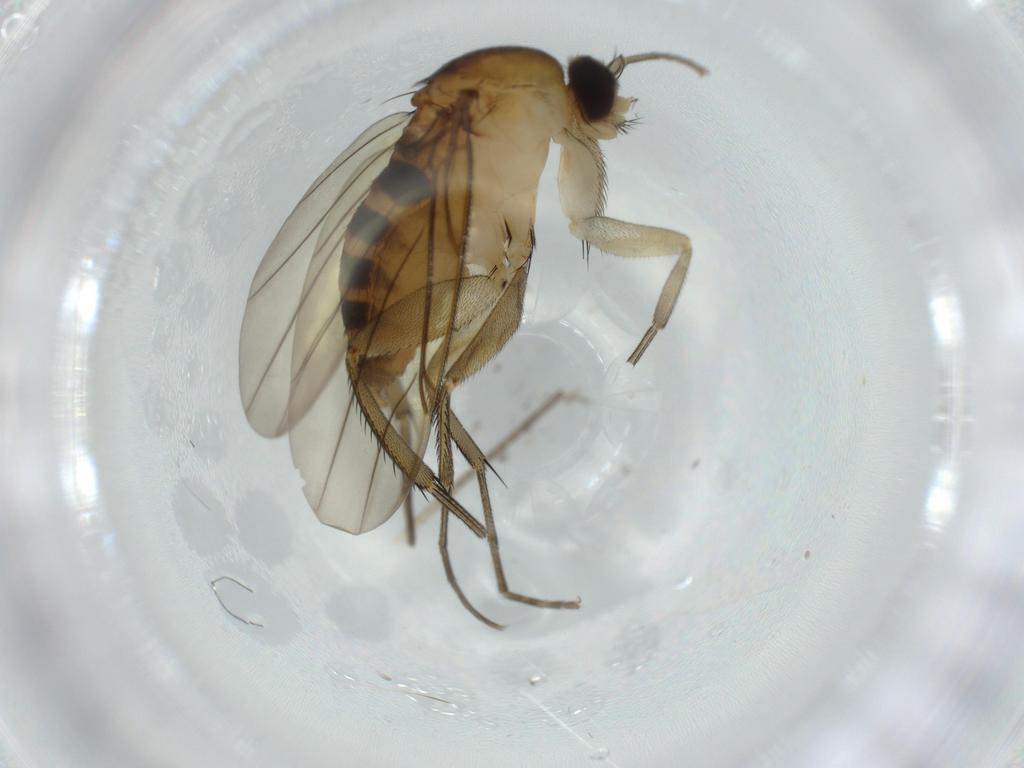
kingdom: Animalia
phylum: Arthropoda
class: Insecta
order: Diptera
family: Phoridae
